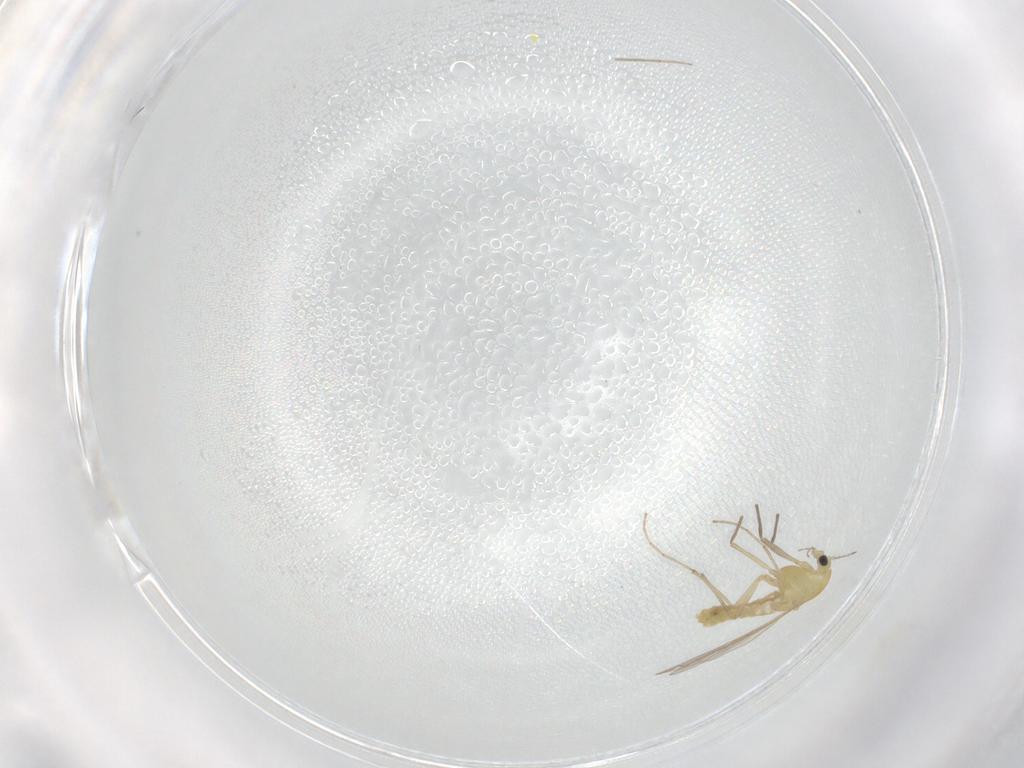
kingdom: Animalia
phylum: Arthropoda
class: Insecta
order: Diptera
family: Chironomidae
